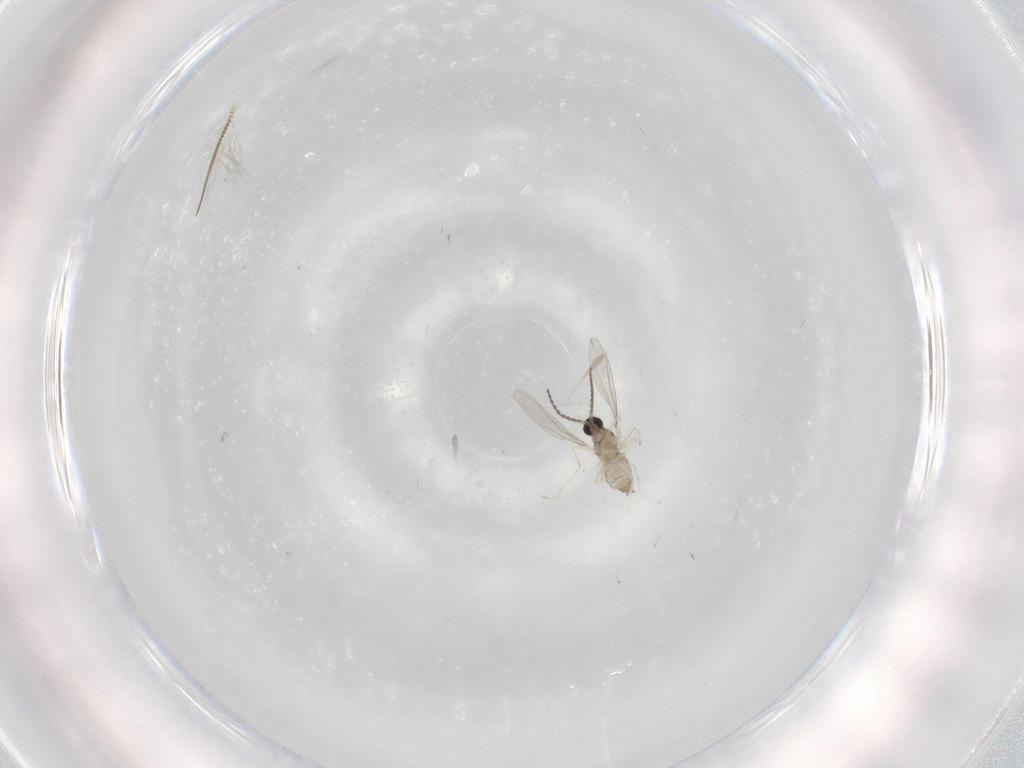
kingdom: Animalia
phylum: Arthropoda
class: Insecta
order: Diptera
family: Cecidomyiidae
